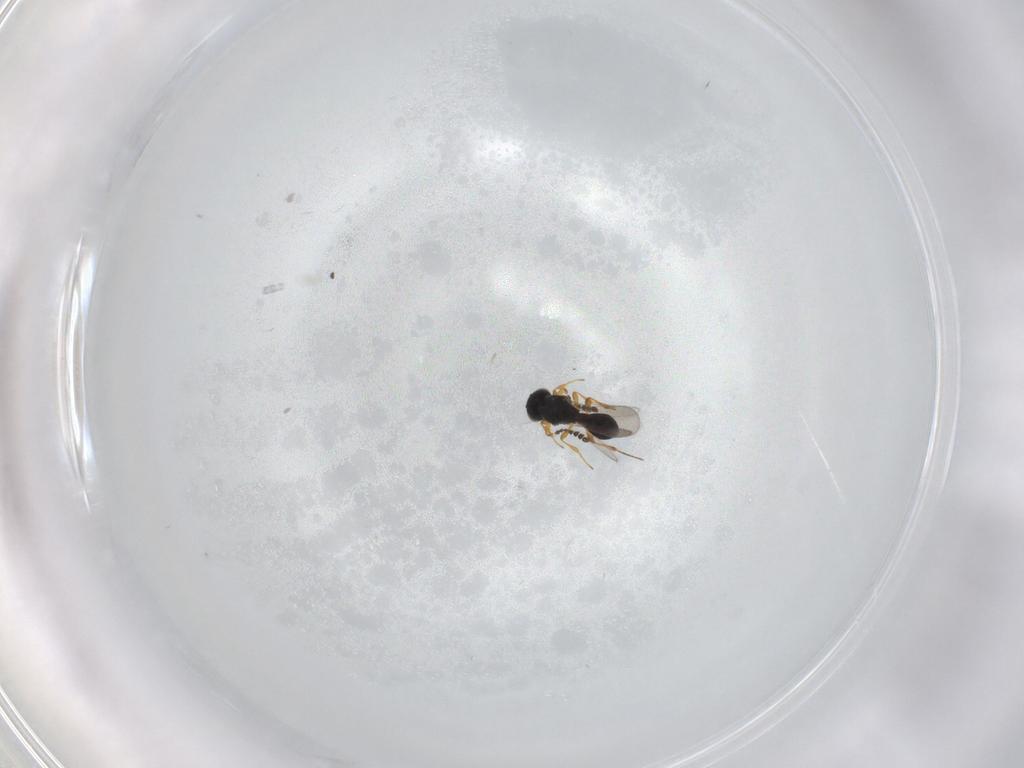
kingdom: Animalia
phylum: Arthropoda
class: Insecta
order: Hymenoptera
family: Platygastridae
